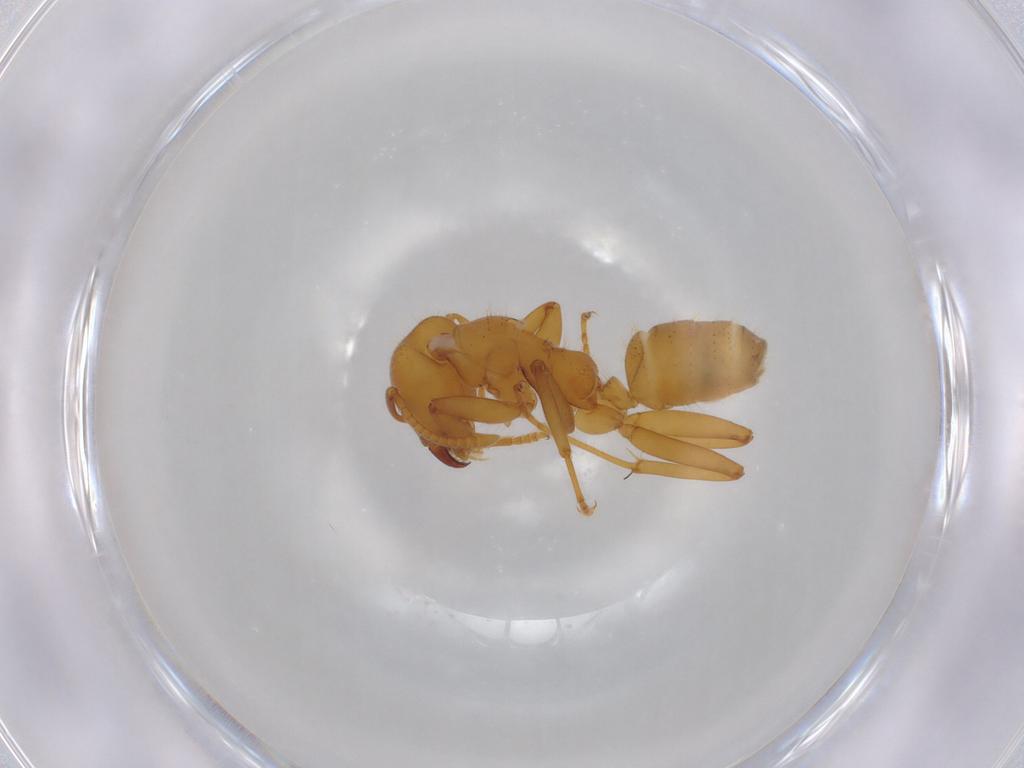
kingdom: Animalia
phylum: Arthropoda
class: Insecta
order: Hymenoptera
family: Formicidae
